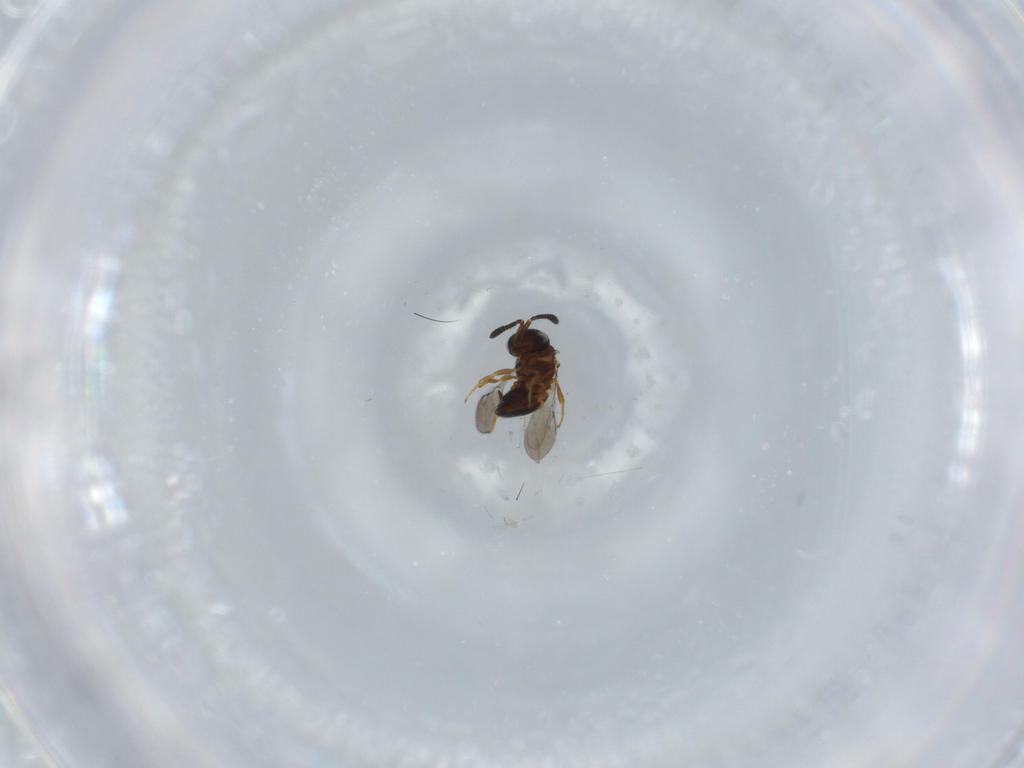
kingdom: Animalia
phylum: Arthropoda
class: Insecta
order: Hymenoptera
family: Scelionidae
